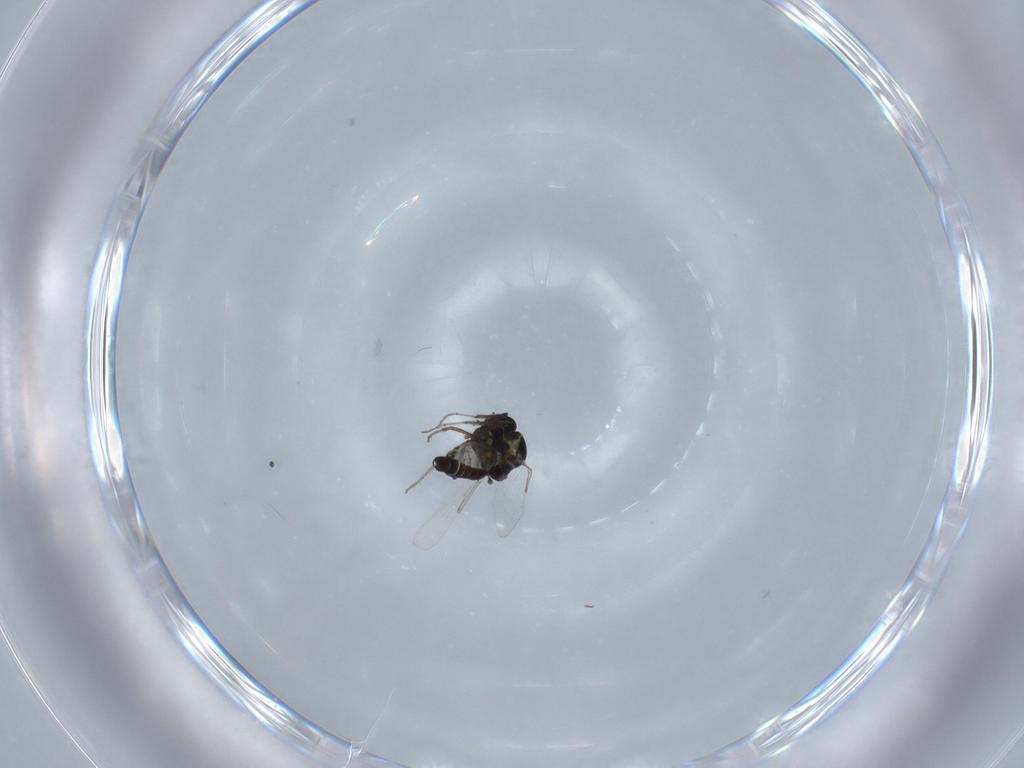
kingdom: Animalia
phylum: Arthropoda
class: Insecta
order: Diptera
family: Ceratopogonidae
